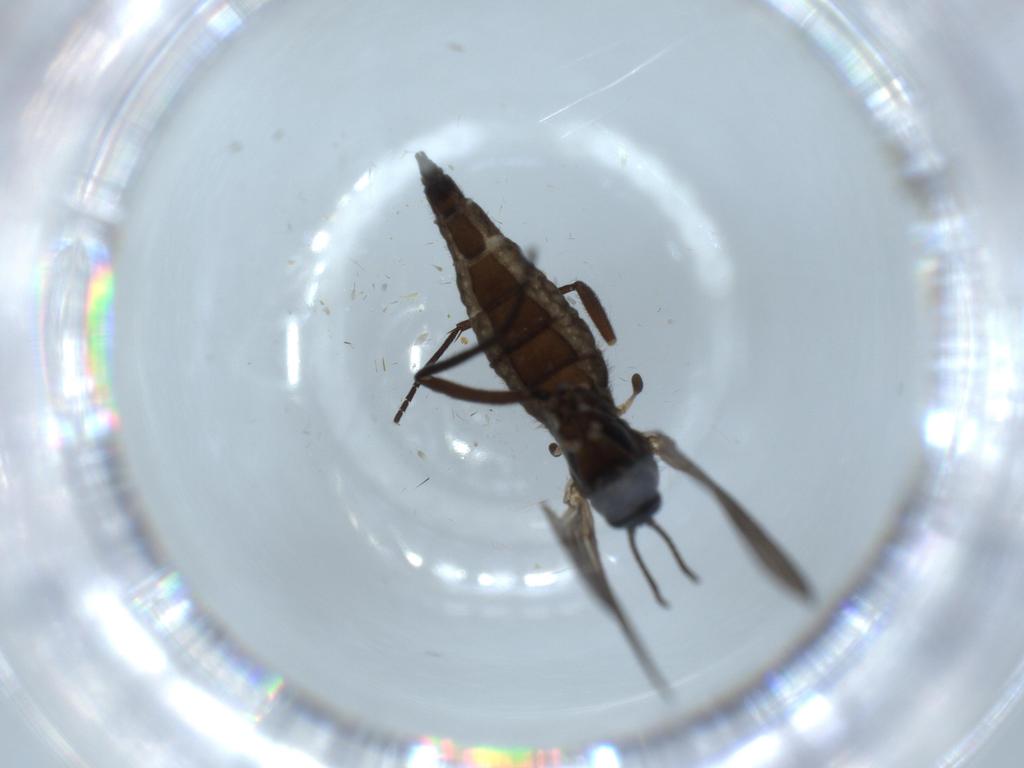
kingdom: Animalia
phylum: Arthropoda
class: Insecta
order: Diptera
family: Sciaridae
